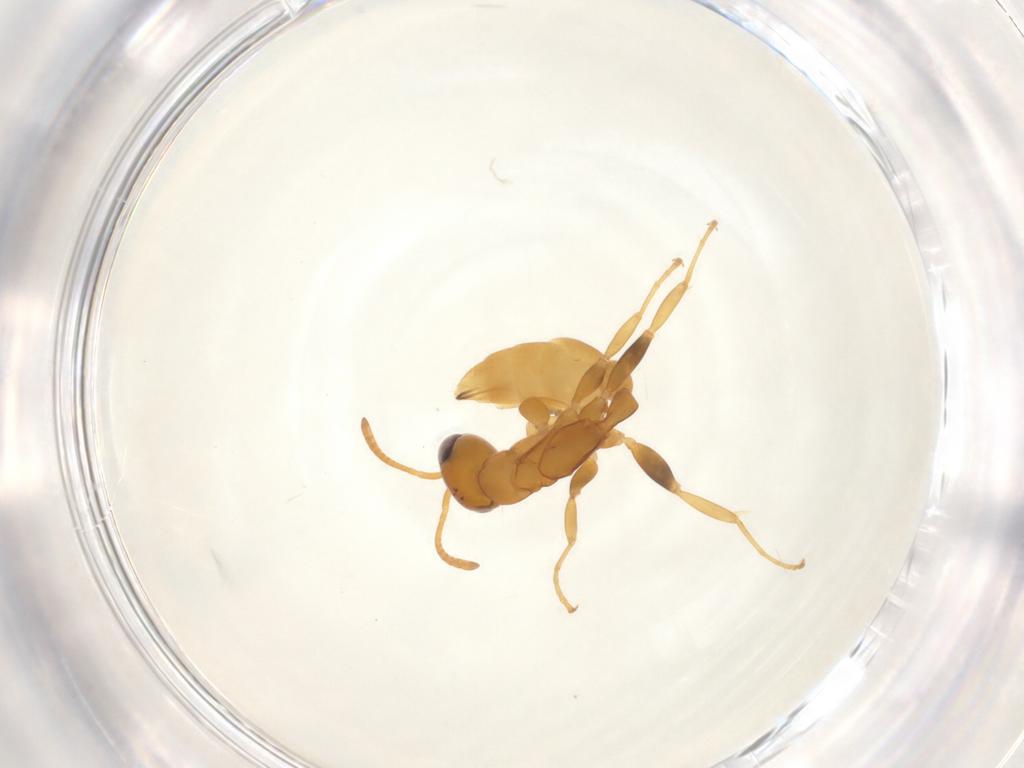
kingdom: Animalia
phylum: Arthropoda
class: Insecta
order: Hymenoptera
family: Formicidae
